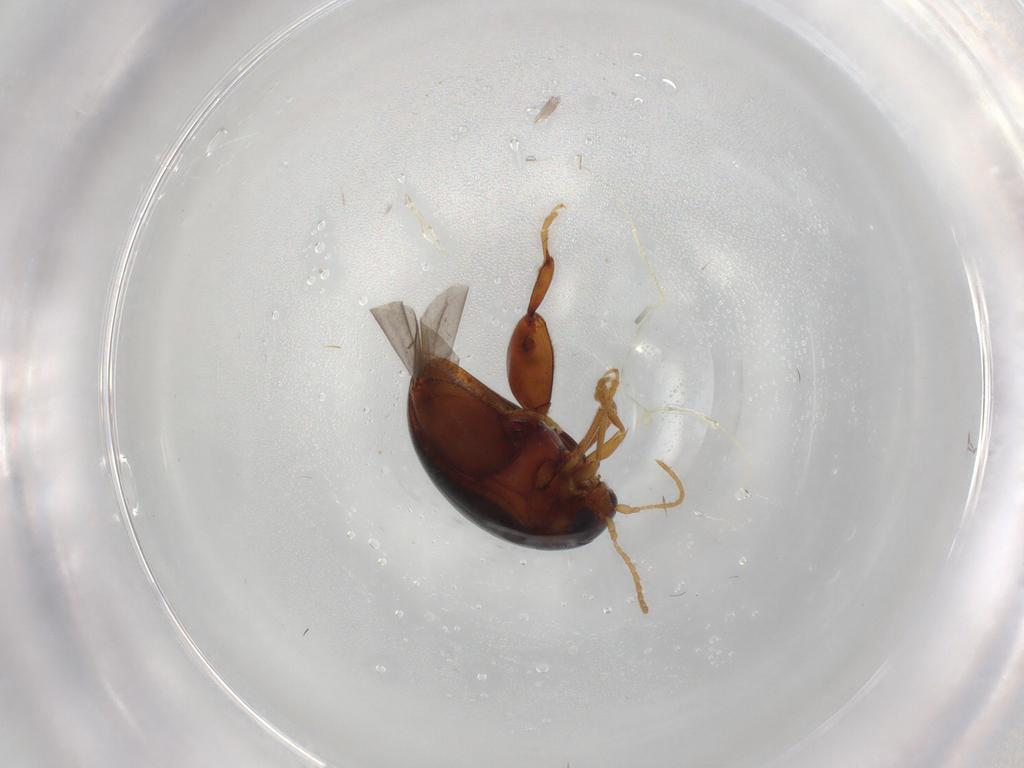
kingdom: Animalia
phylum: Arthropoda
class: Insecta
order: Coleoptera
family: Chrysomelidae
